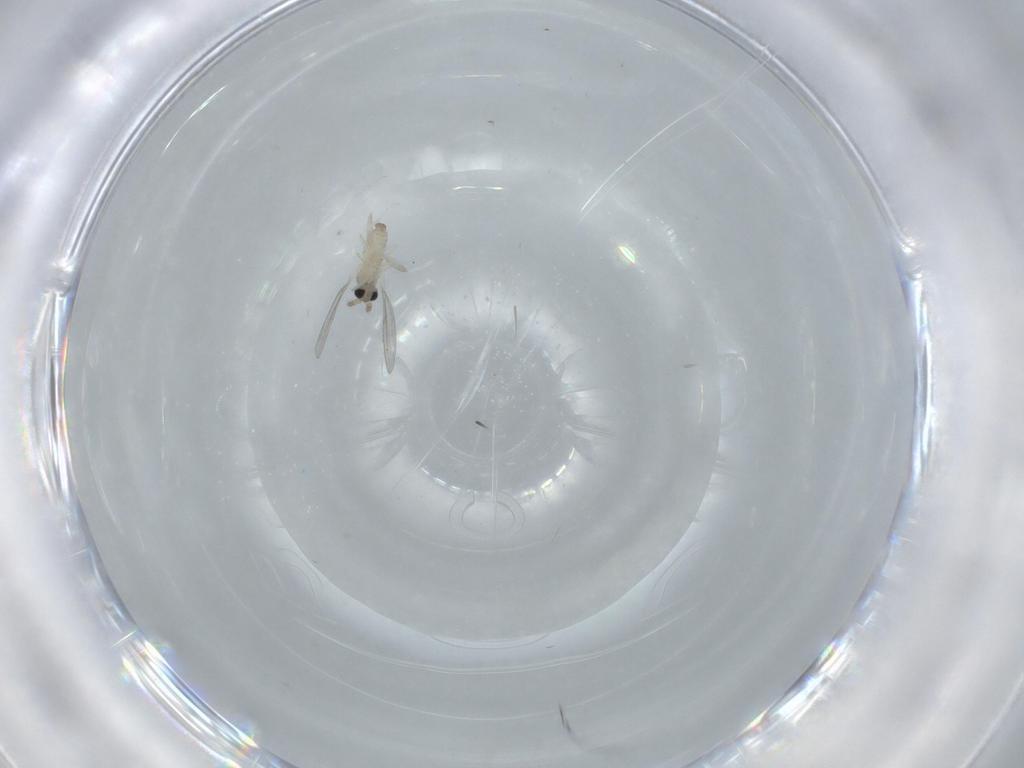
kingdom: Animalia
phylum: Arthropoda
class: Insecta
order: Diptera
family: Cecidomyiidae
